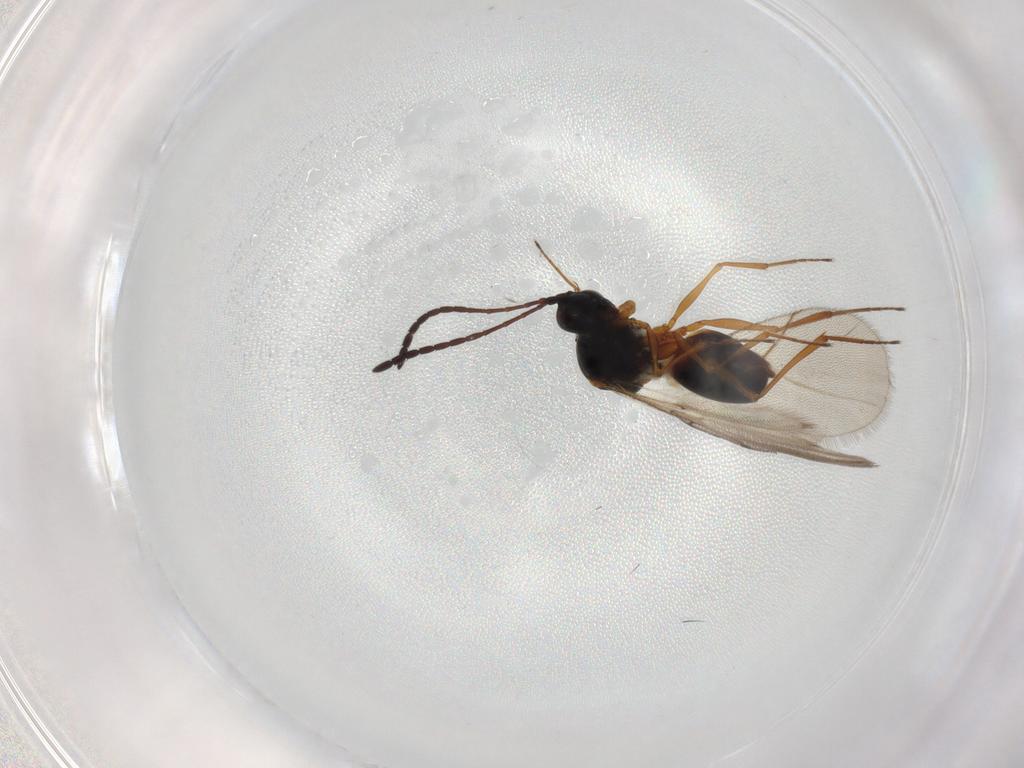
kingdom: Animalia
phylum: Arthropoda
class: Insecta
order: Hymenoptera
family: Figitidae
